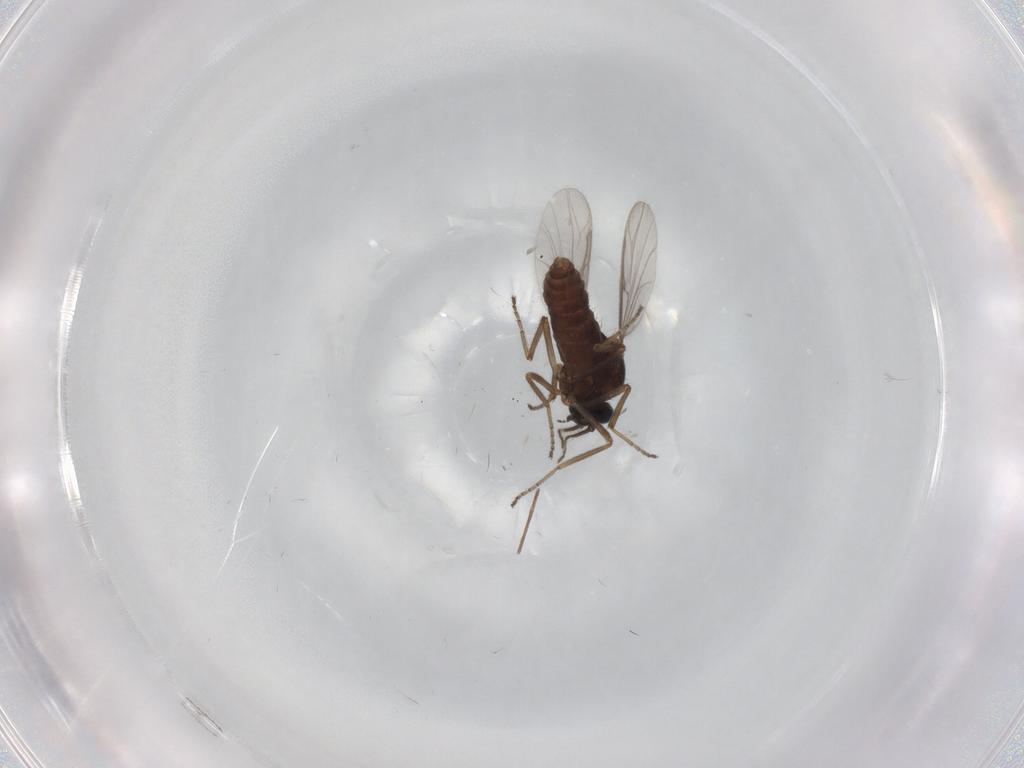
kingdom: Animalia
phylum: Arthropoda
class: Insecta
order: Diptera
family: Ceratopogonidae
